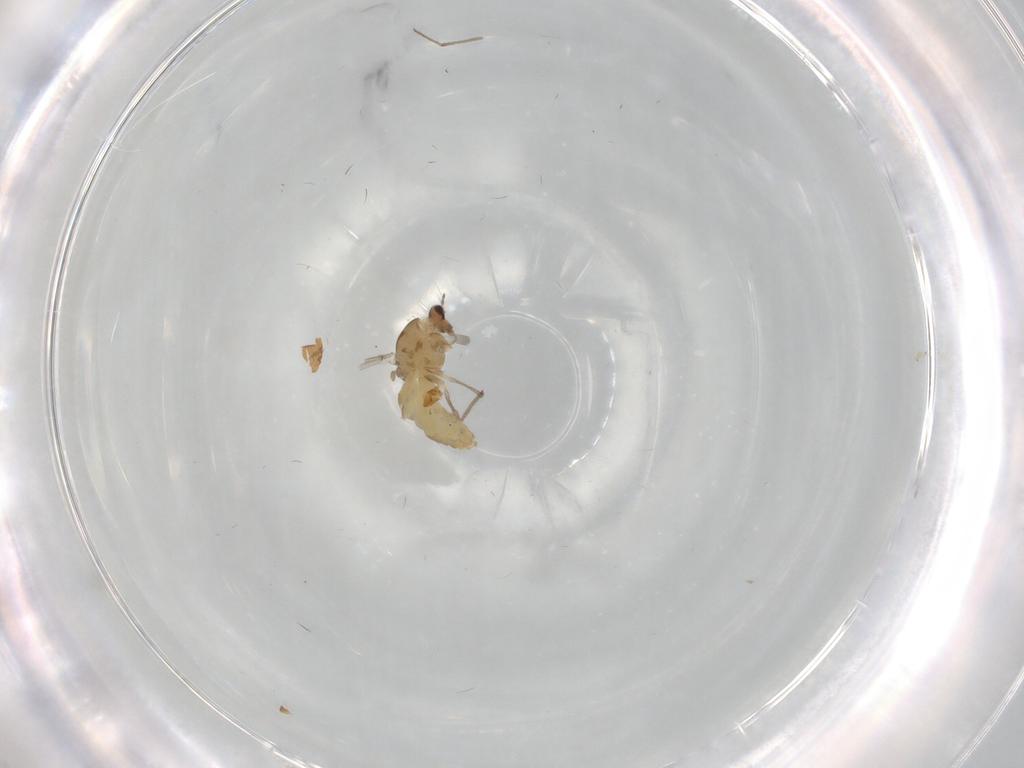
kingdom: Animalia
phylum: Arthropoda
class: Insecta
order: Diptera
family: Chironomidae
